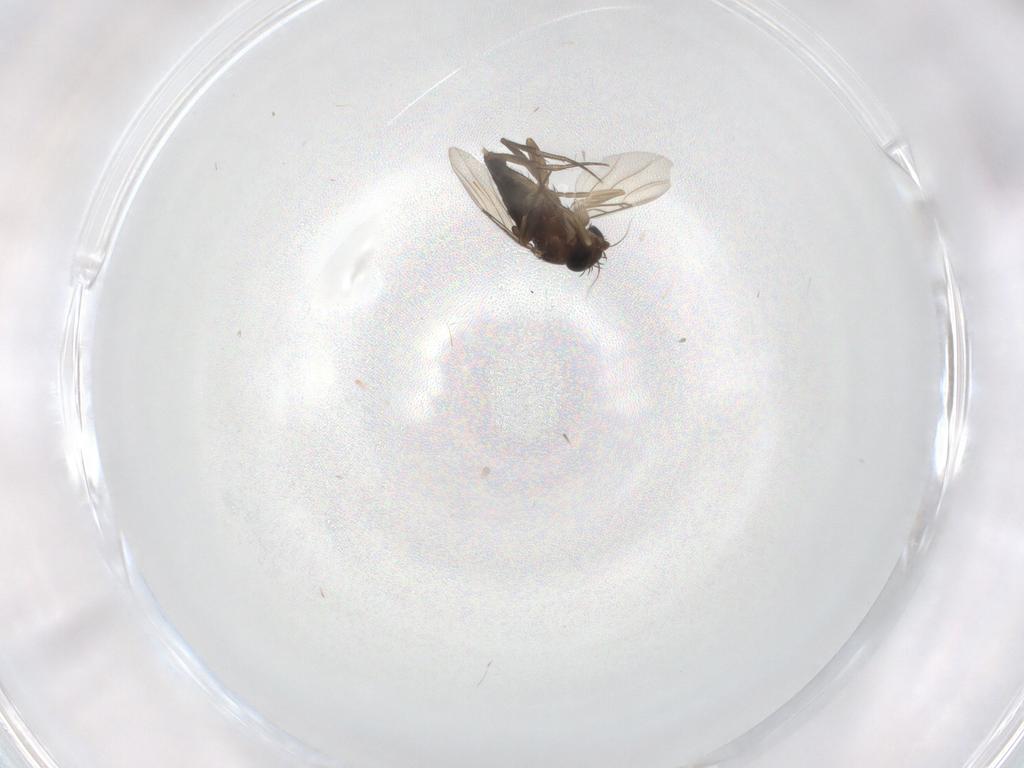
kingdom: Animalia
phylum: Arthropoda
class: Insecta
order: Diptera
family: Phoridae
